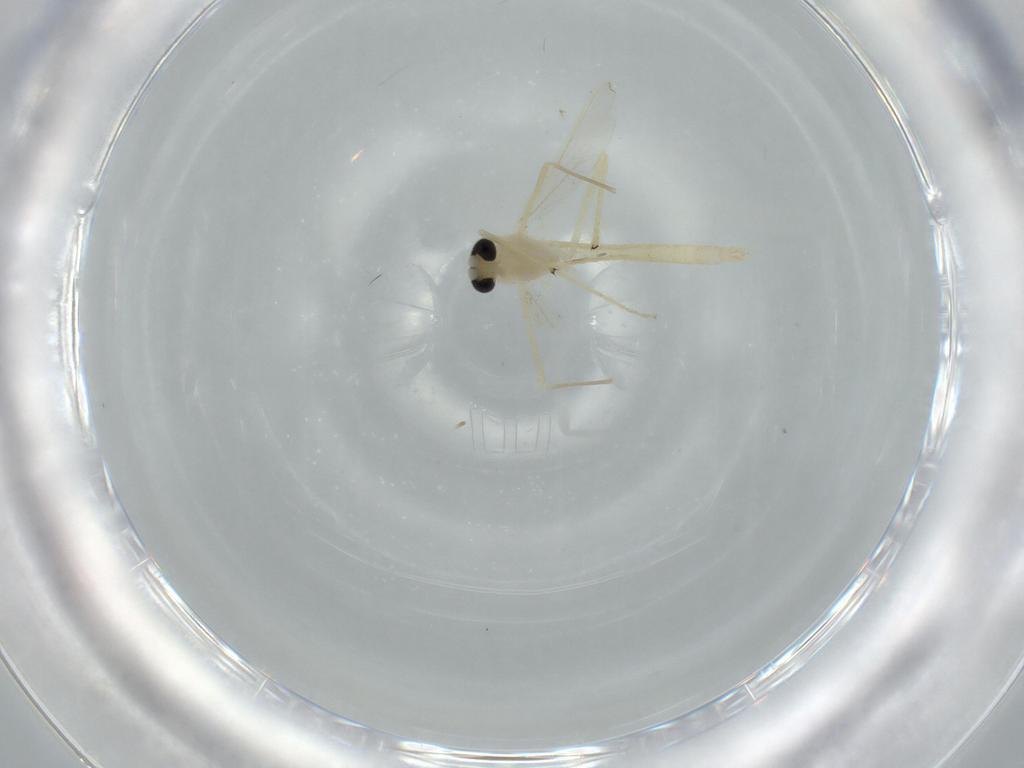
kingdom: Animalia
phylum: Arthropoda
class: Insecta
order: Diptera
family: Chironomidae
